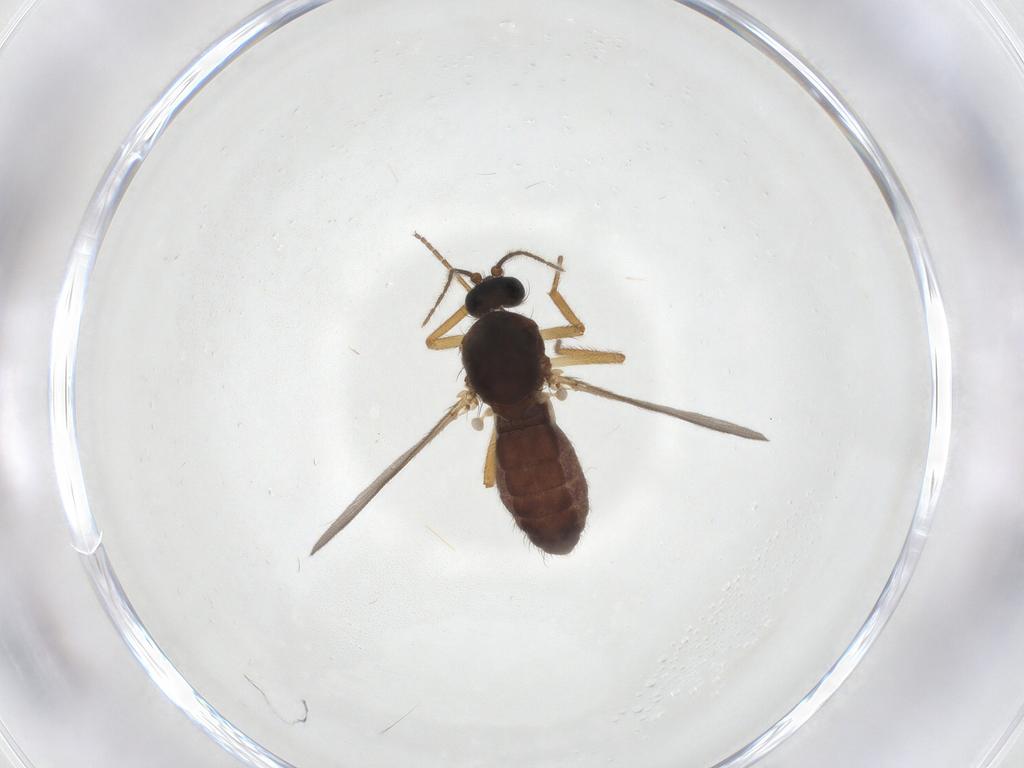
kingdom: Animalia
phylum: Arthropoda
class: Insecta
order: Diptera
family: Ceratopogonidae
